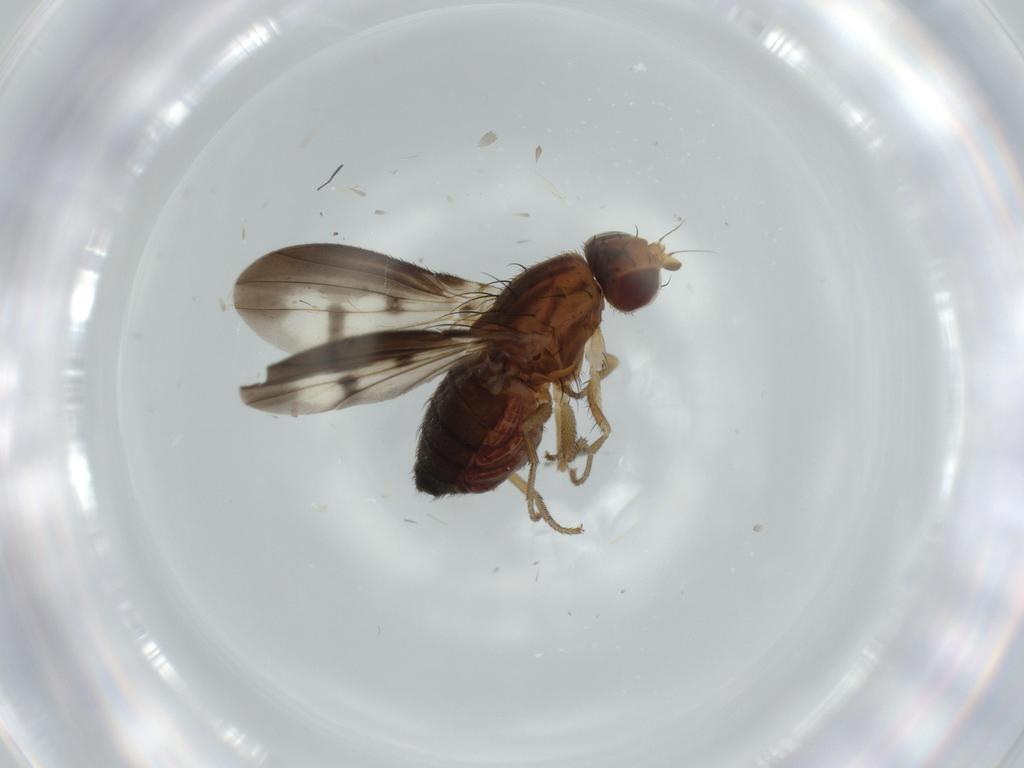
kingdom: Animalia
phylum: Arthropoda
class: Insecta
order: Diptera
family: Heleomyzidae
